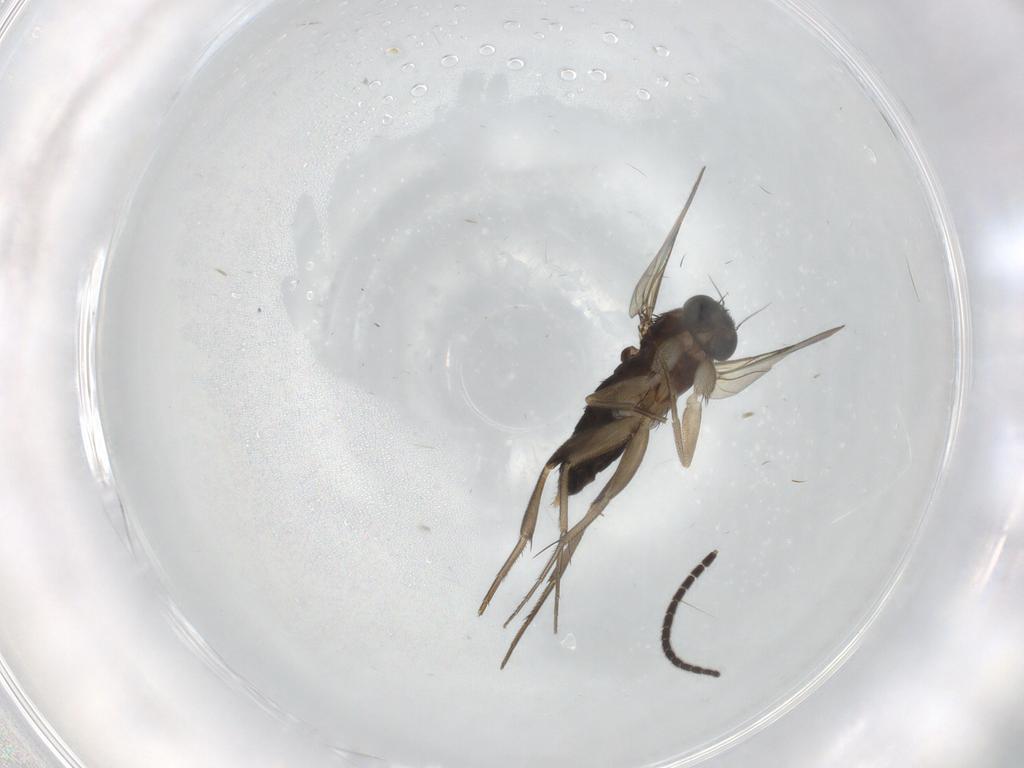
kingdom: Animalia
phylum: Arthropoda
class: Insecta
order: Diptera
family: Phoridae
